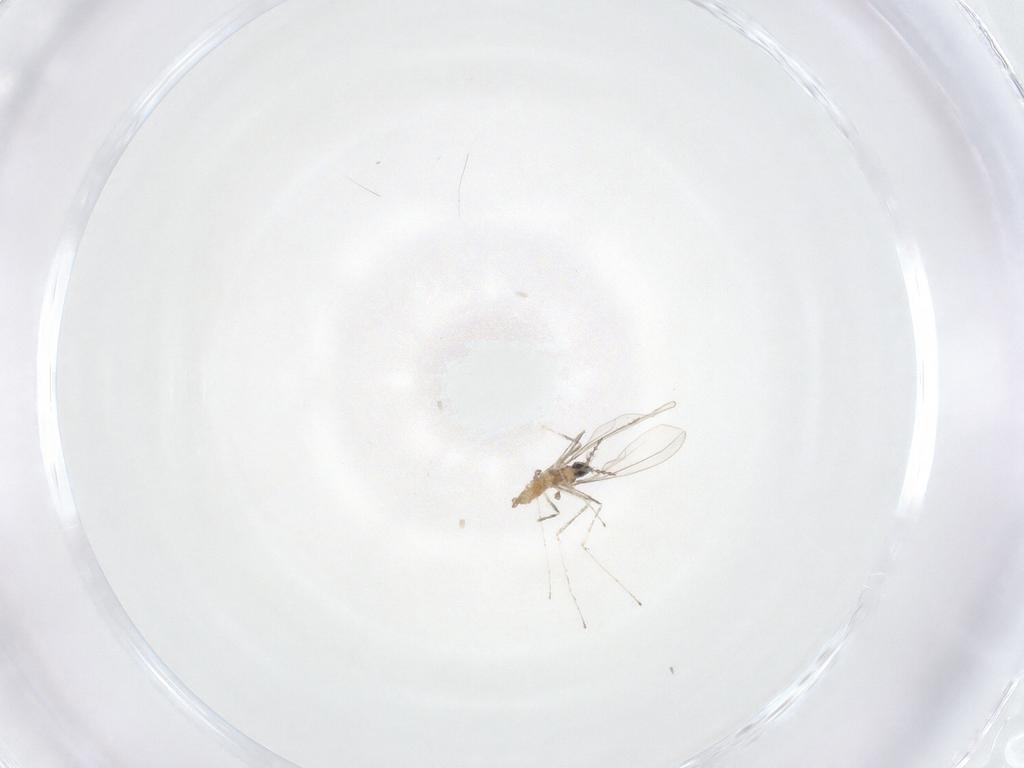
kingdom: Animalia
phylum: Arthropoda
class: Insecta
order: Diptera
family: Cecidomyiidae
